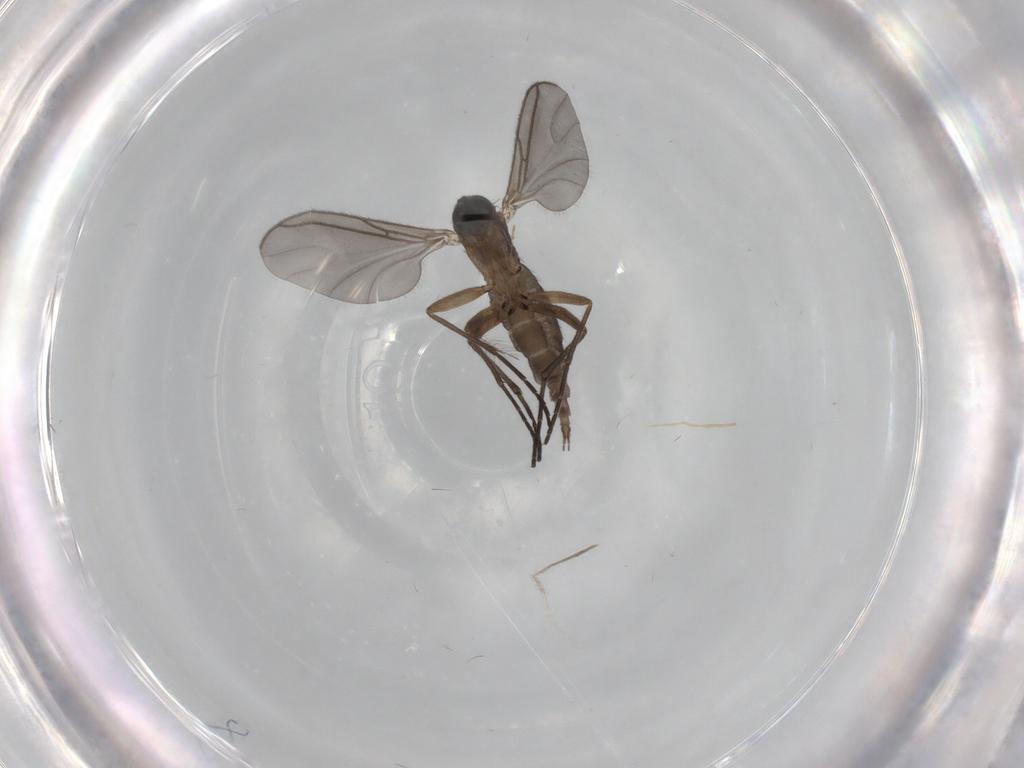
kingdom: Animalia
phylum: Arthropoda
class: Insecta
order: Diptera
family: Sciaridae
